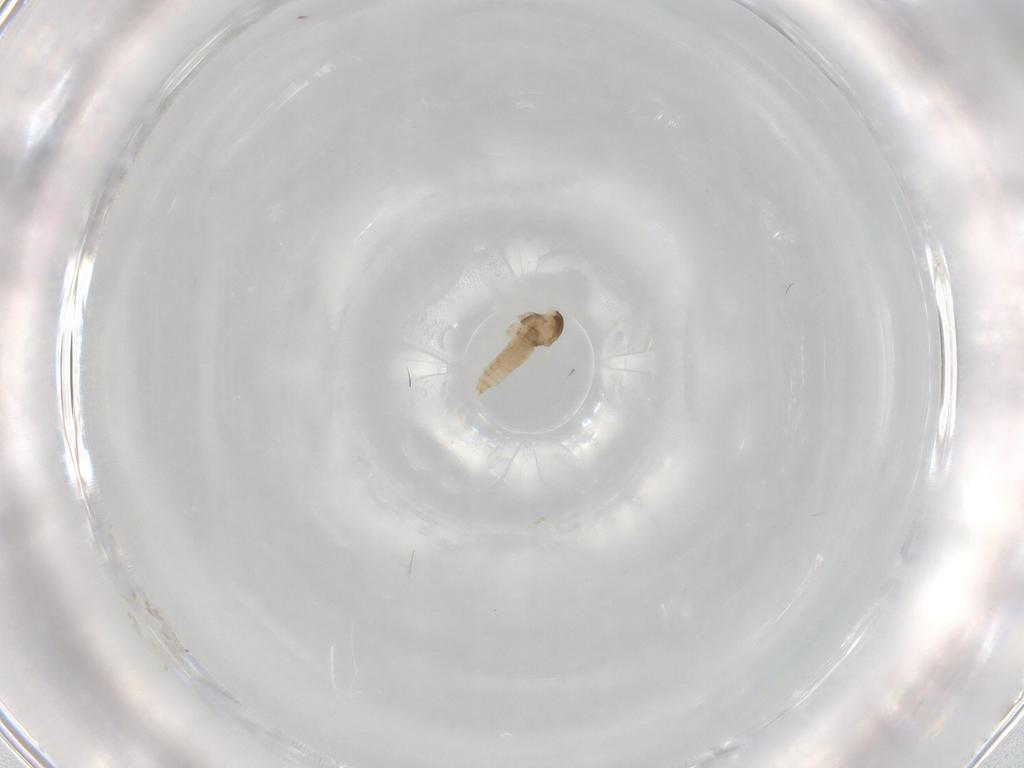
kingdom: Animalia
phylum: Arthropoda
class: Insecta
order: Diptera
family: Cecidomyiidae
